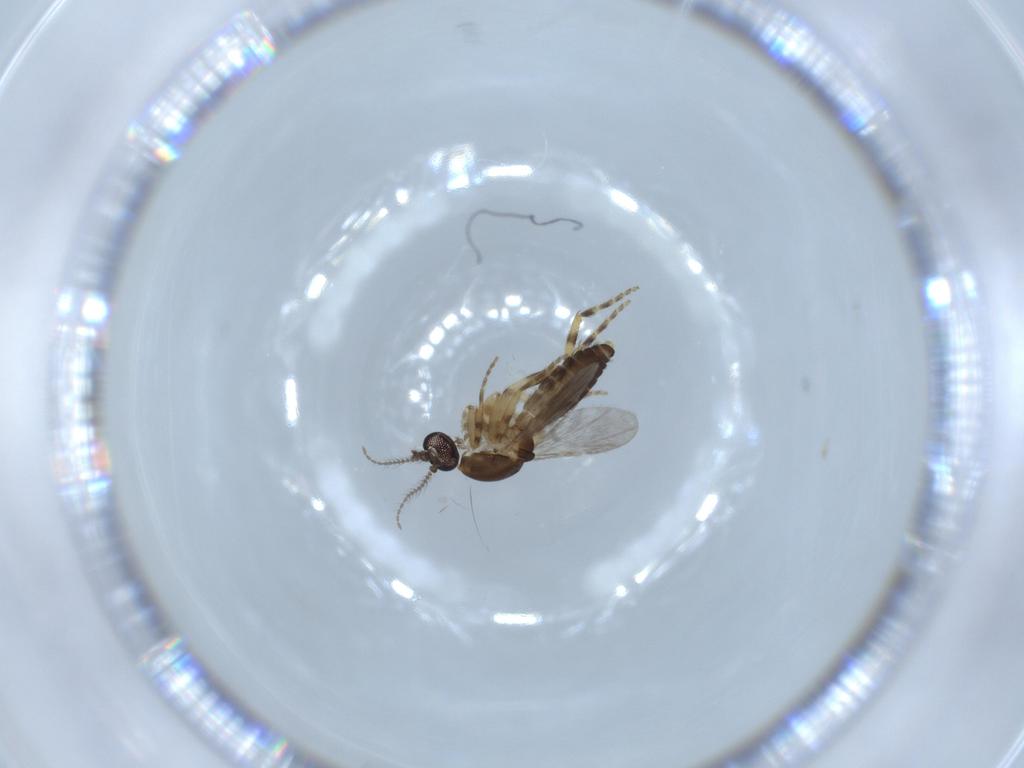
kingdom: Animalia
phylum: Arthropoda
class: Insecta
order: Diptera
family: Cecidomyiidae
